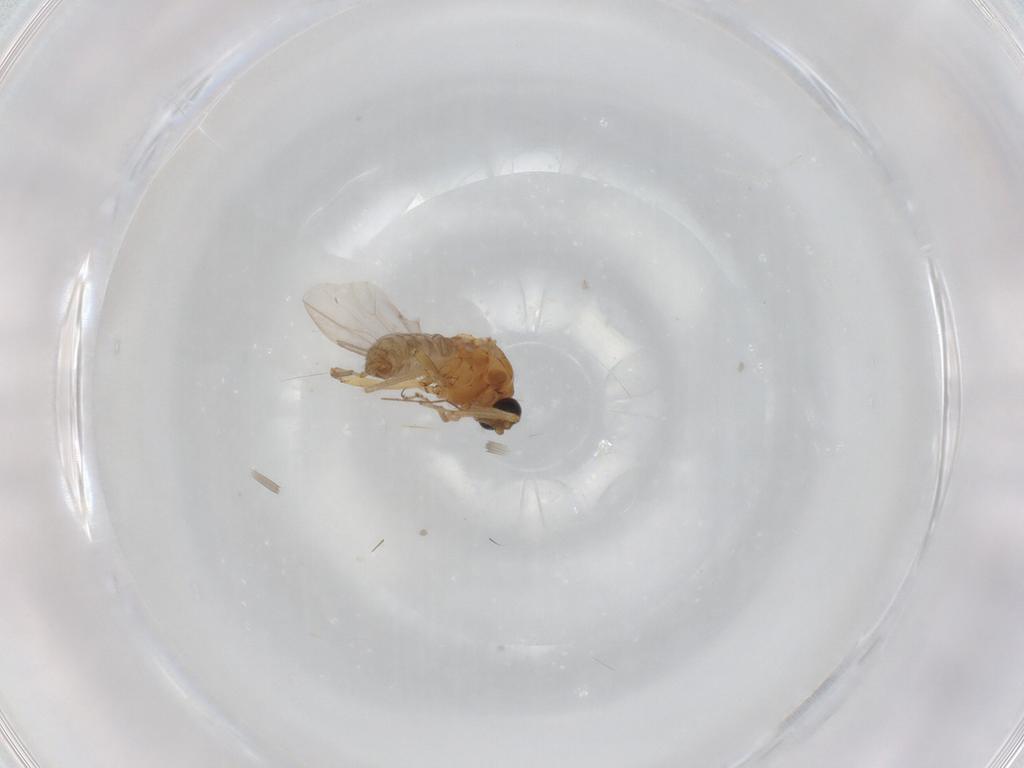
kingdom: Animalia
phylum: Arthropoda
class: Insecta
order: Diptera
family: Ceratopogonidae
